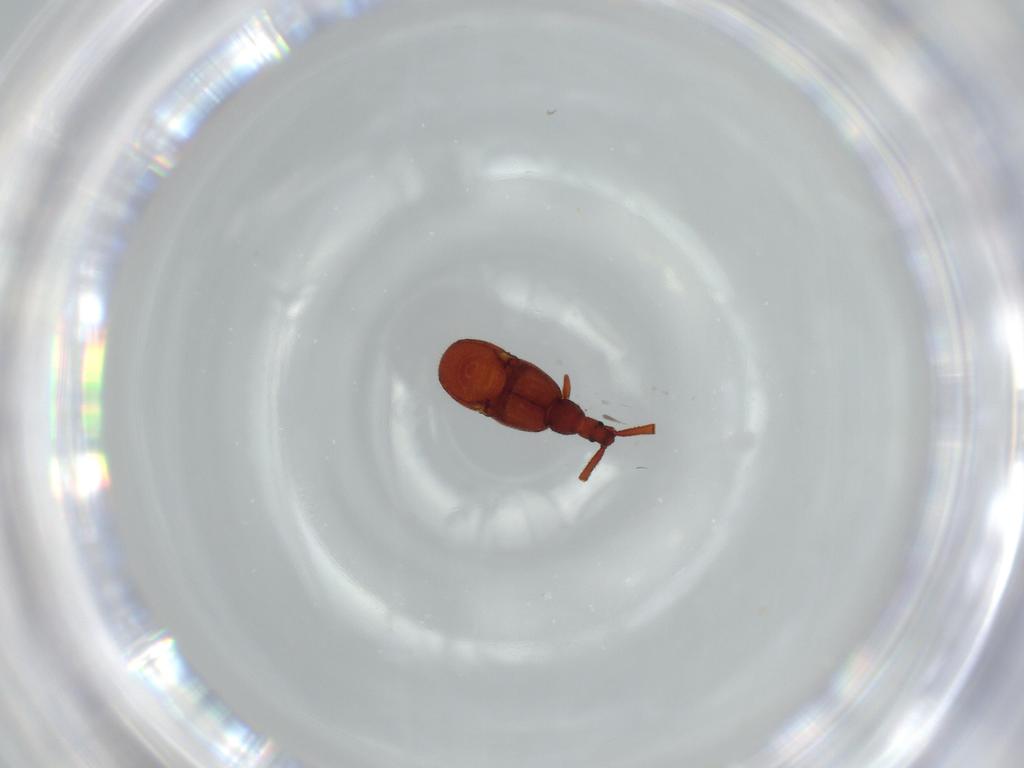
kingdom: Animalia
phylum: Arthropoda
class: Insecta
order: Coleoptera
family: Staphylinidae
